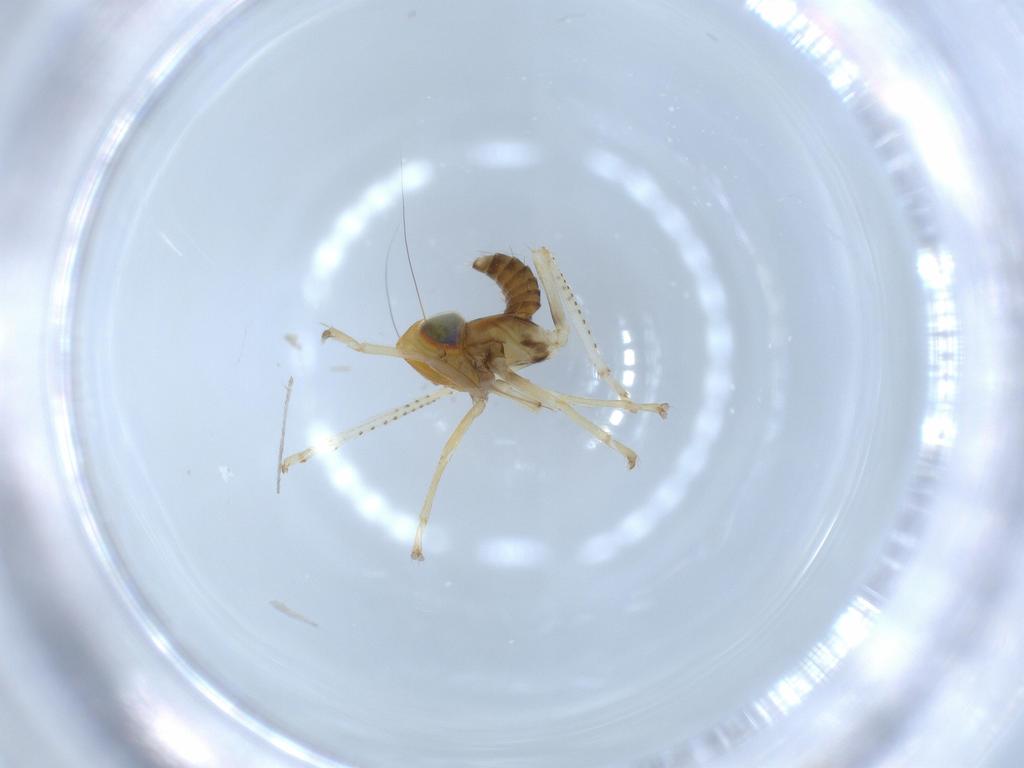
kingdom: Animalia
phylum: Arthropoda
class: Insecta
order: Hemiptera
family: Cicadellidae
